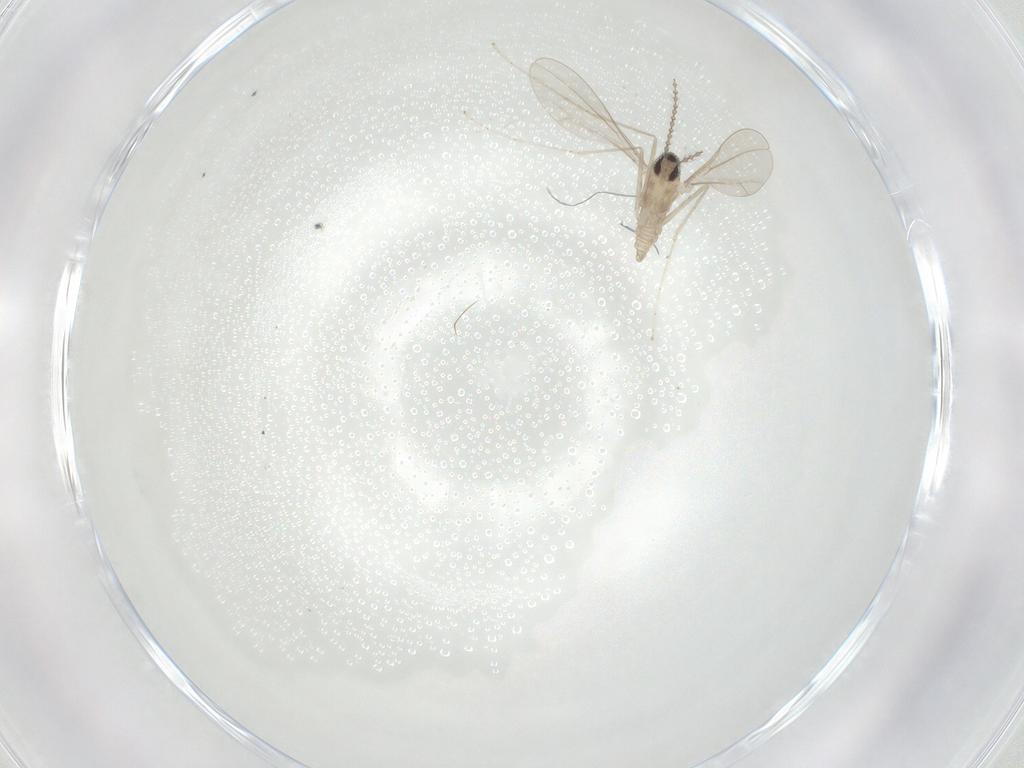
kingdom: Animalia
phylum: Arthropoda
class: Insecta
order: Diptera
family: Cecidomyiidae
